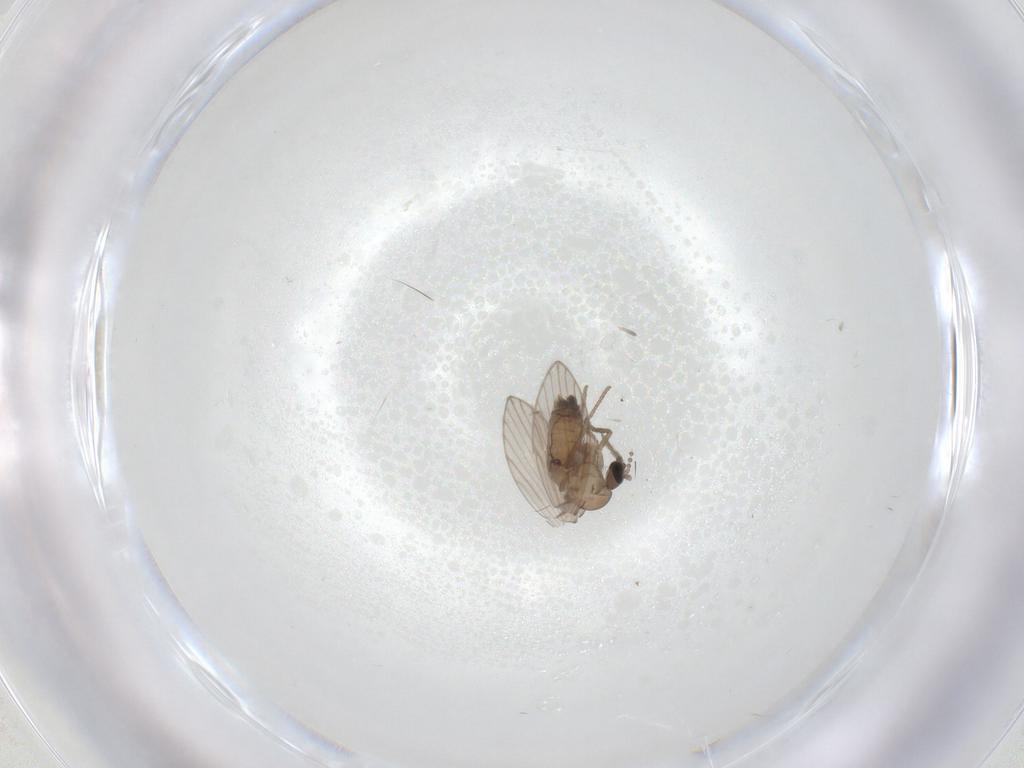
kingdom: Animalia
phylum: Arthropoda
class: Insecta
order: Diptera
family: Psychodidae
